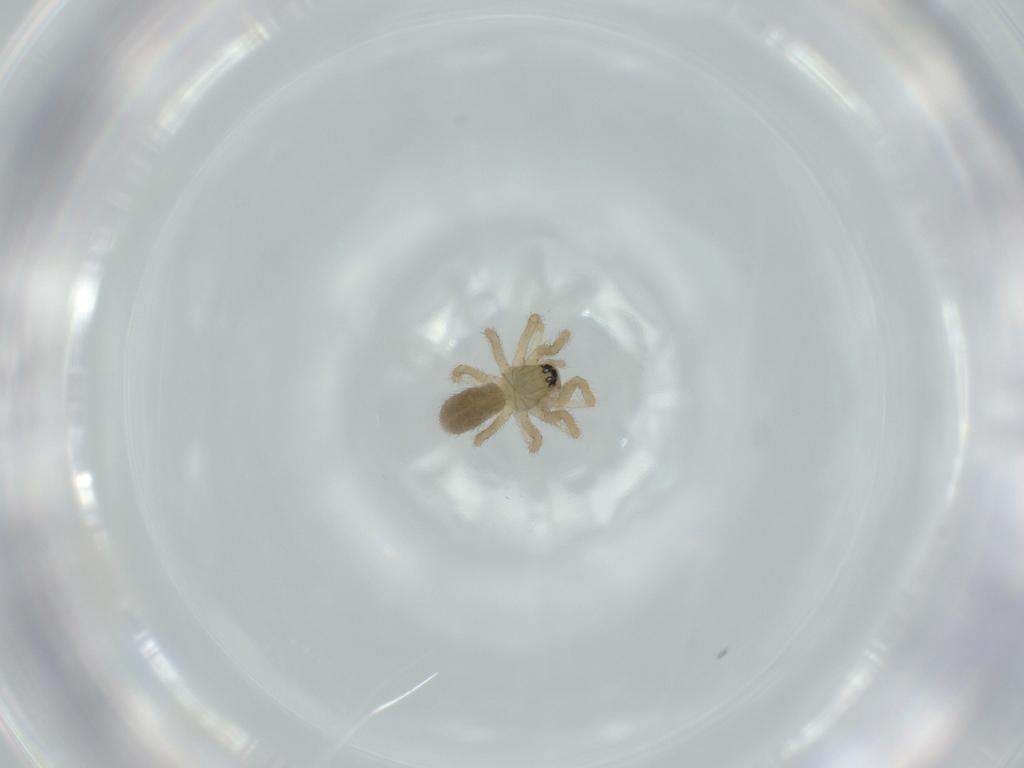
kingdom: Animalia
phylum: Arthropoda
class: Arachnida
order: Araneae
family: Linyphiidae
